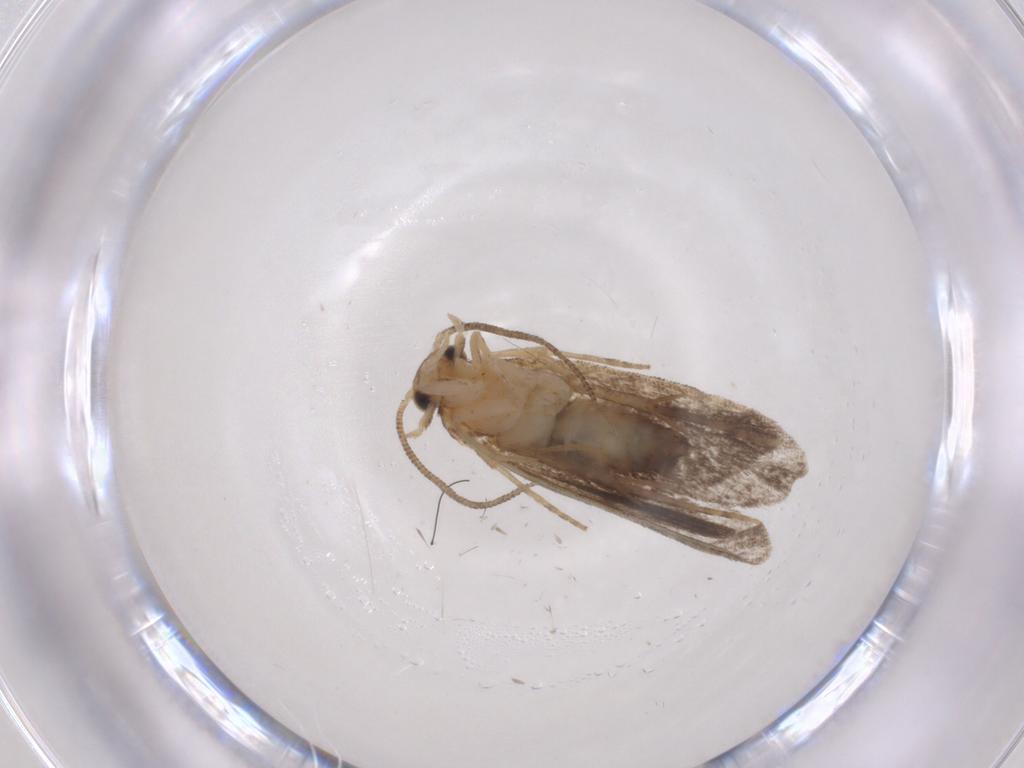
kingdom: Animalia
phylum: Arthropoda
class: Insecta
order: Lepidoptera
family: Dryadaulidae
